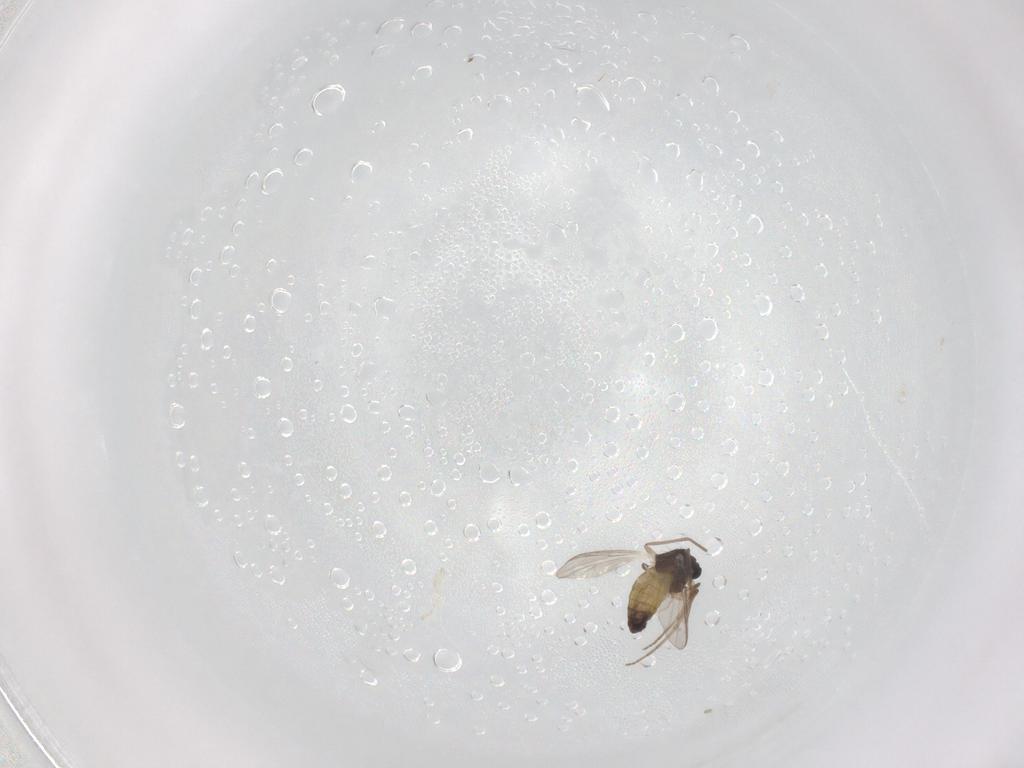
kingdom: Animalia
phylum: Arthropoda
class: Insecta
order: Diptera
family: Chironomidae
